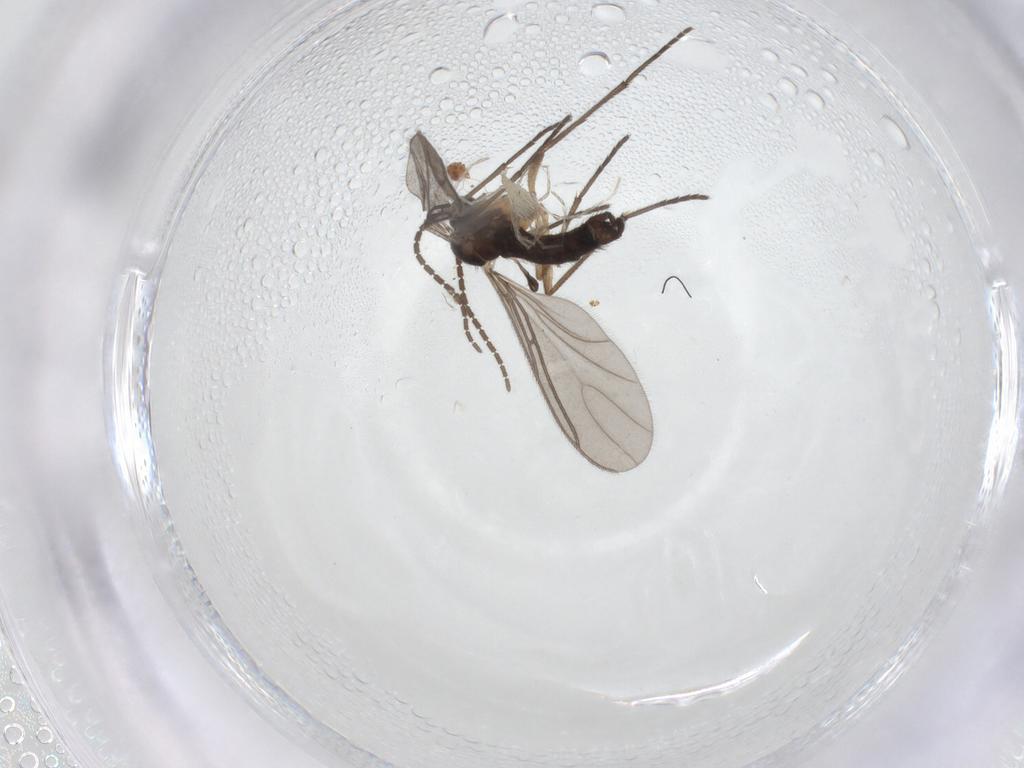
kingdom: Animalia
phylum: Arthropoda
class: Insecta
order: Diptera
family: Sciaridae
